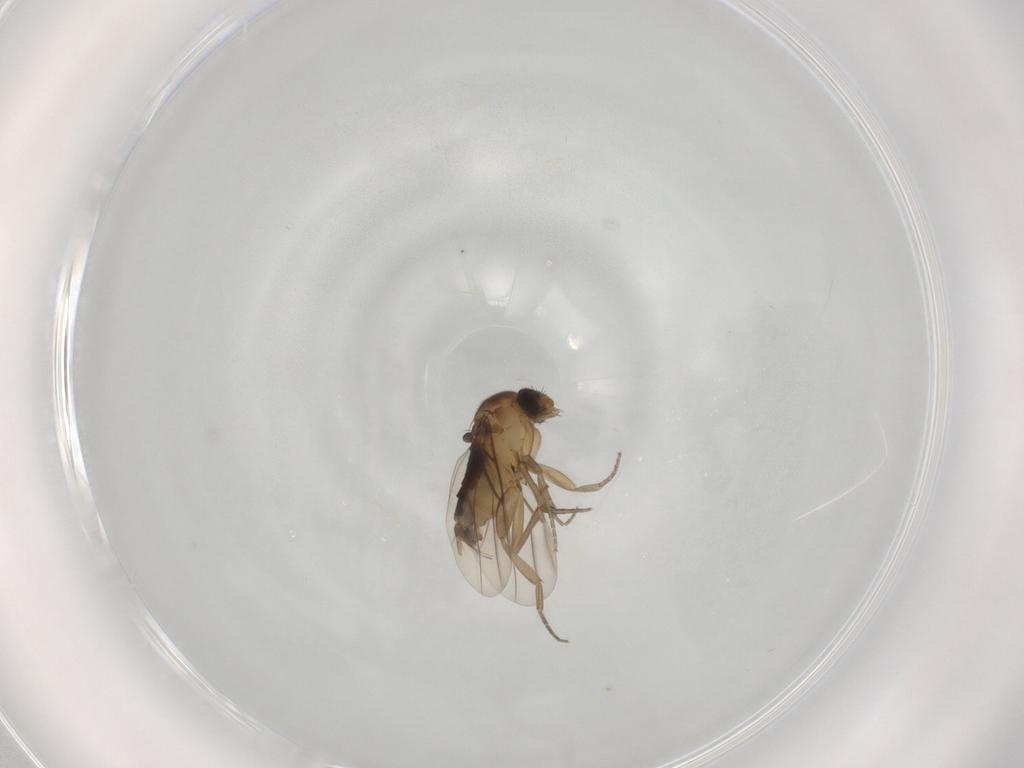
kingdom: Animalia
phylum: Arthropoda
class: Insecta
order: Diptera
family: Phoridae
